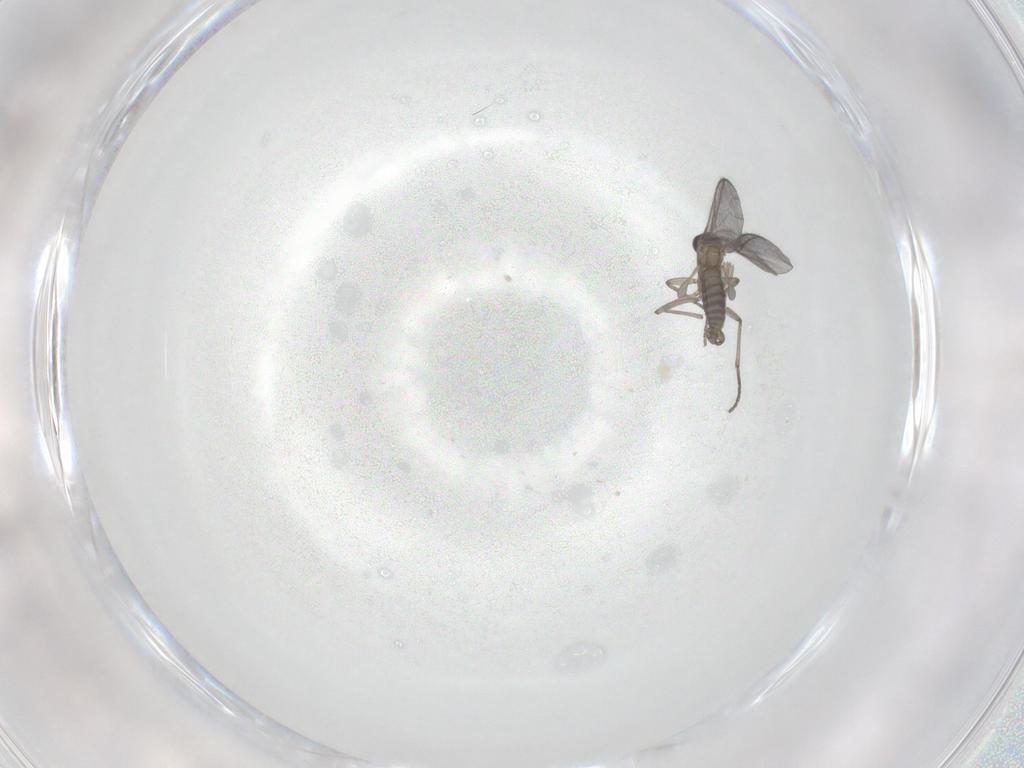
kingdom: Animalia
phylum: Arthropoda
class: Insecta
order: Diptera
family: Sciaridae
